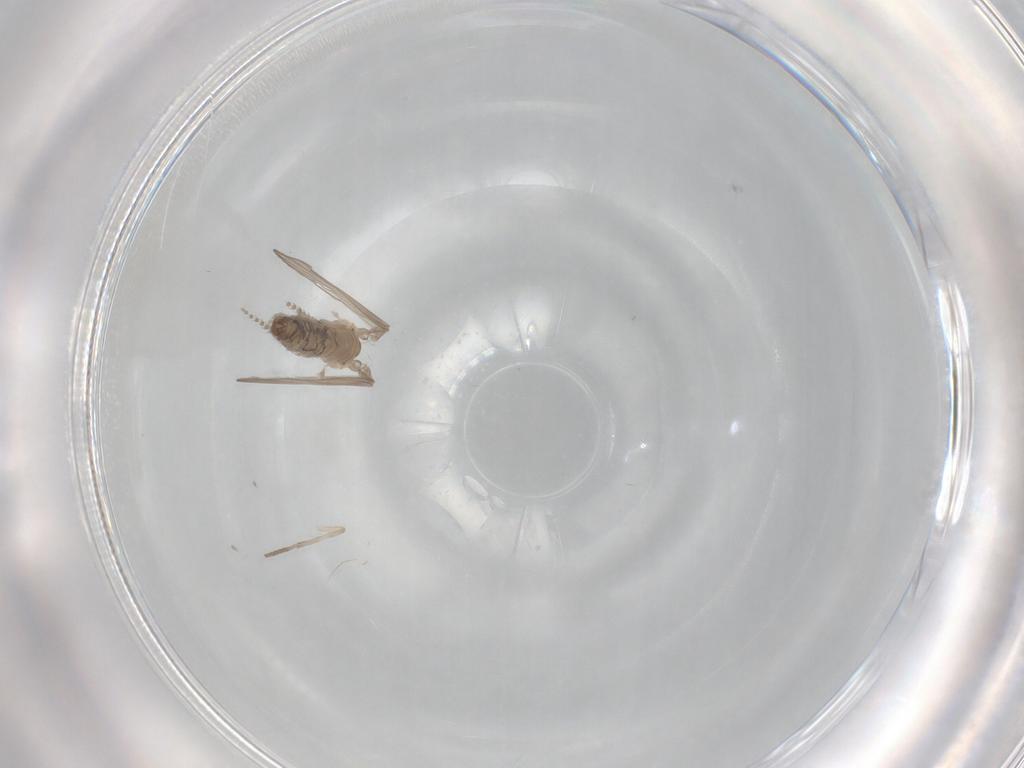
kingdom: Animalia
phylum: Arthropoda
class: Insecta
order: Diptera
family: Psychodidae
